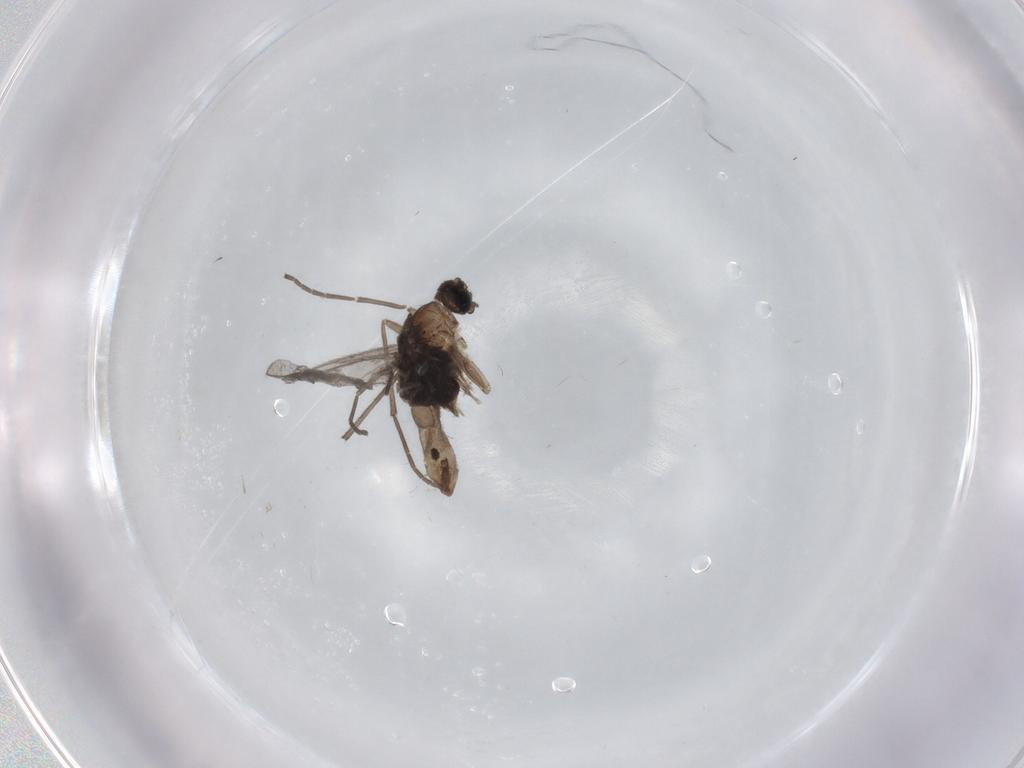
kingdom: Animalia
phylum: Arthropoda
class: Insecta
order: Diptera
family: Sciaridae
